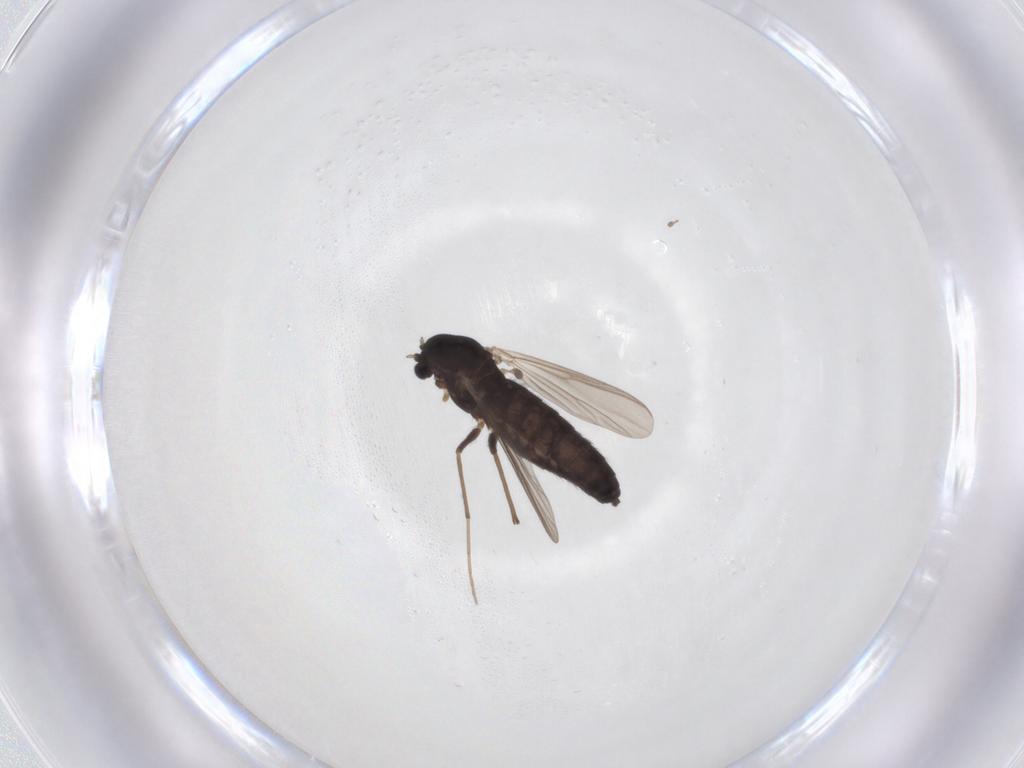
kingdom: Animalia
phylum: Arthropoda
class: Insecta
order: Diptera
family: Chironomidae
